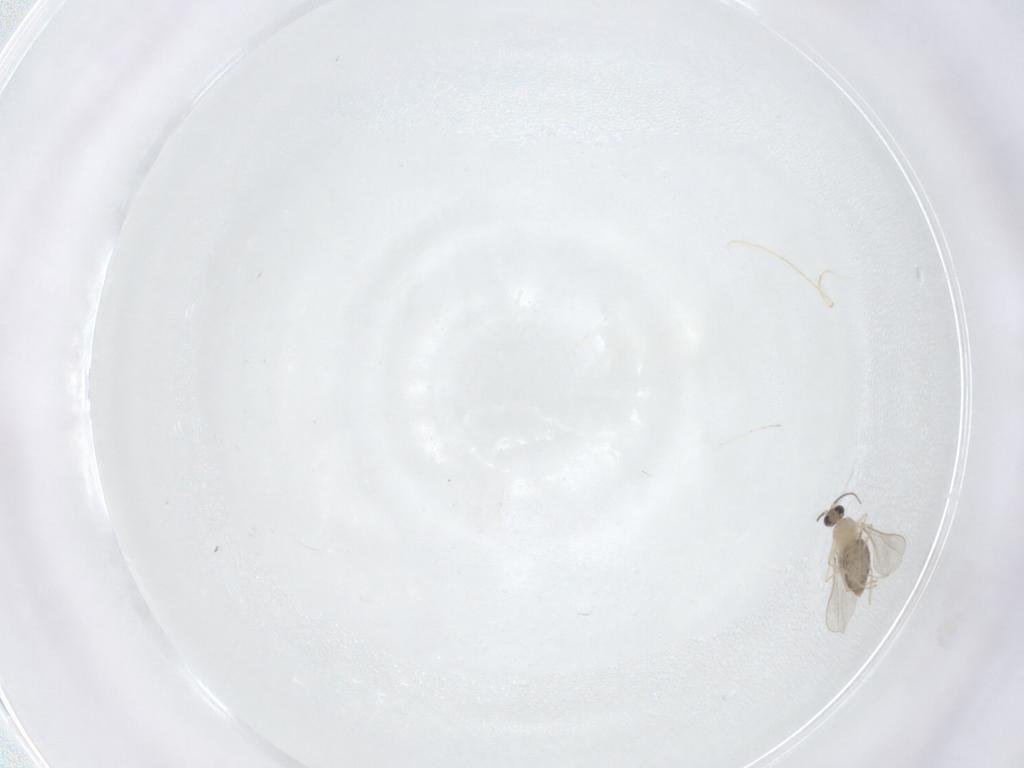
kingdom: Animalia
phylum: Arthropoda
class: Insecta
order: Diptera
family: Cecidomyiidae
